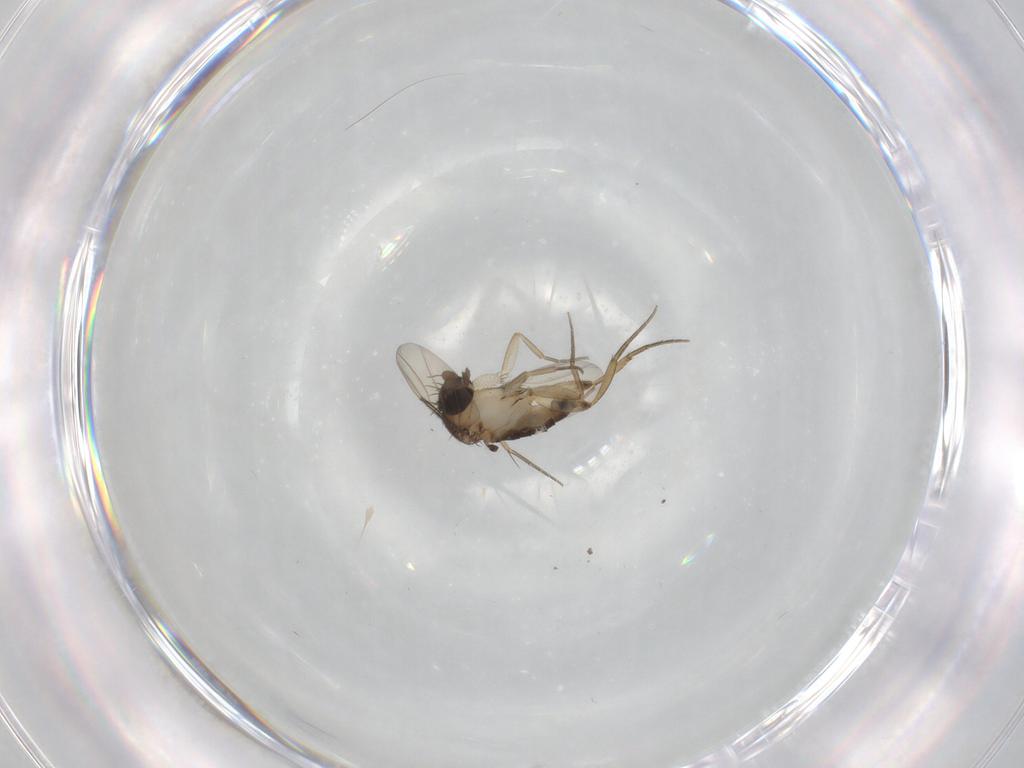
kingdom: Animalia
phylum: Arthropoda
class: Insecta
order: Diptera
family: Phoridae
